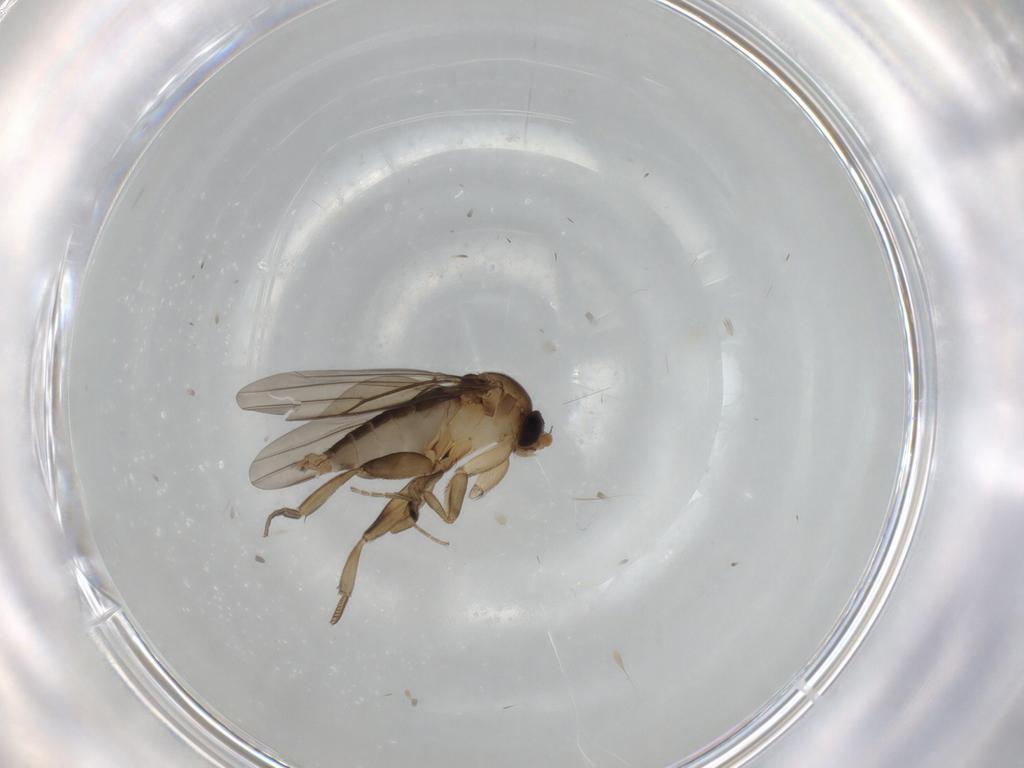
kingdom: Animalia
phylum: Arthropoda
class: Insecta
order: Diptera
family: Phoridae
